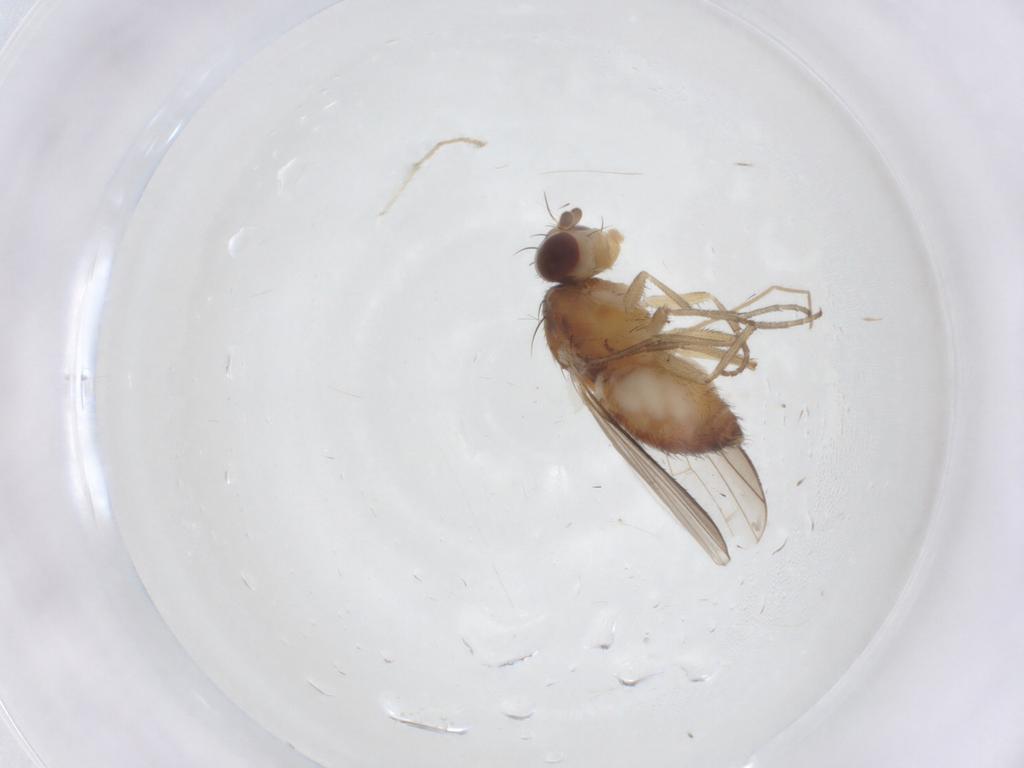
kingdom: Animalia
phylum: Arthropoda
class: Insecta
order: Diptera
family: Heleomyzidae
